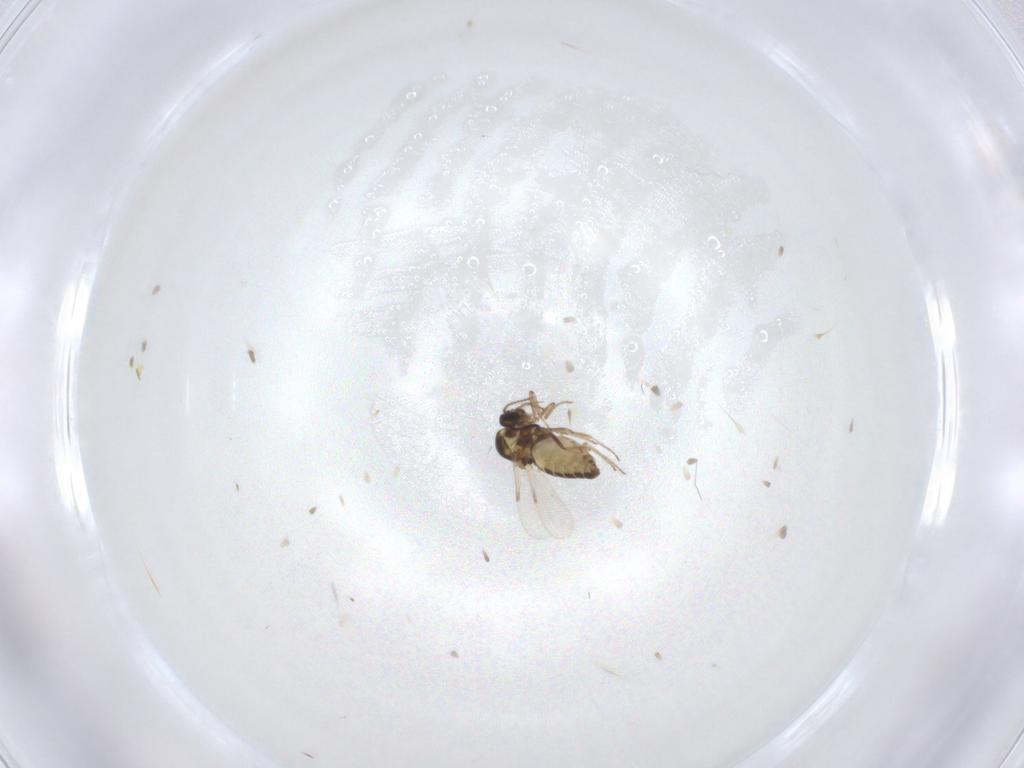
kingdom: Animalia
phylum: Arthropoda
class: Insecta
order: Diptera
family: Ceratopogonidae
